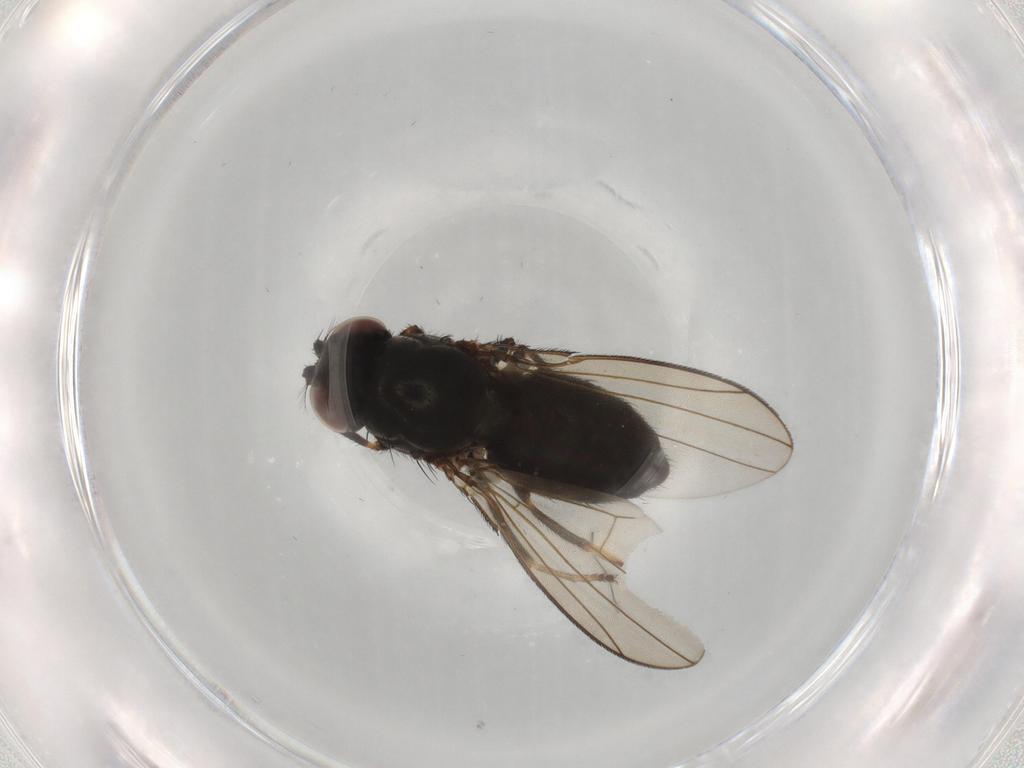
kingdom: Animalia
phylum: Arthropoda
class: Insecta
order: Diptera
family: Ephydridae
